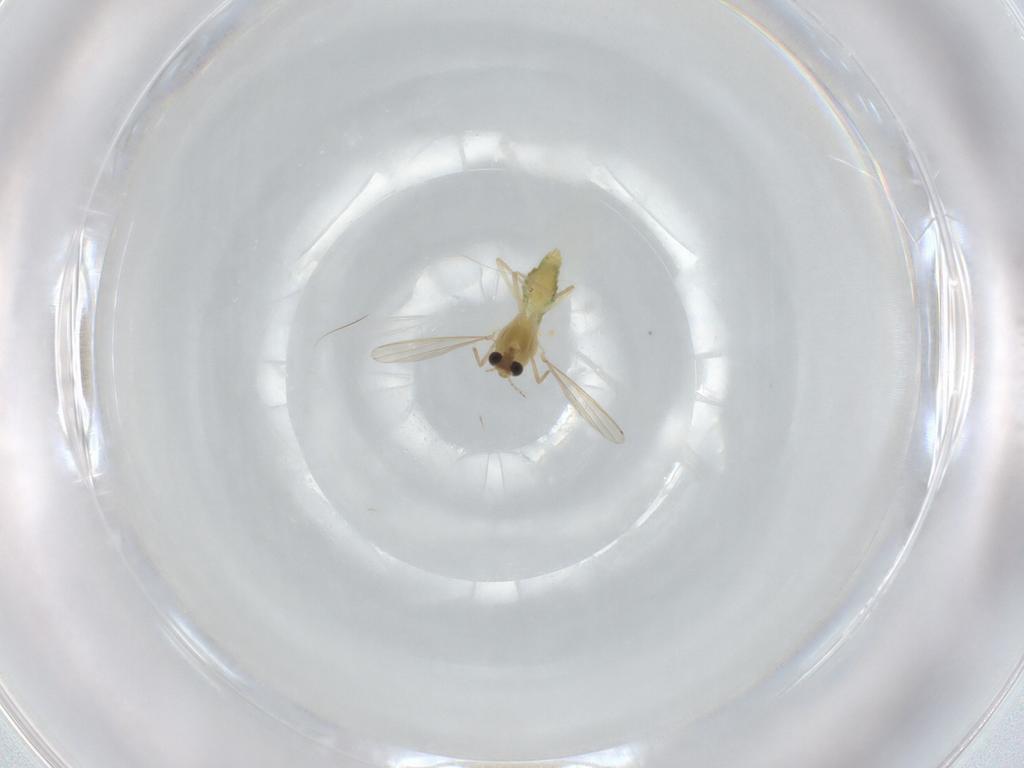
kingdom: Animalia
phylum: Arthropoda
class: Insecta
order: Diptera
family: Chironomidae
